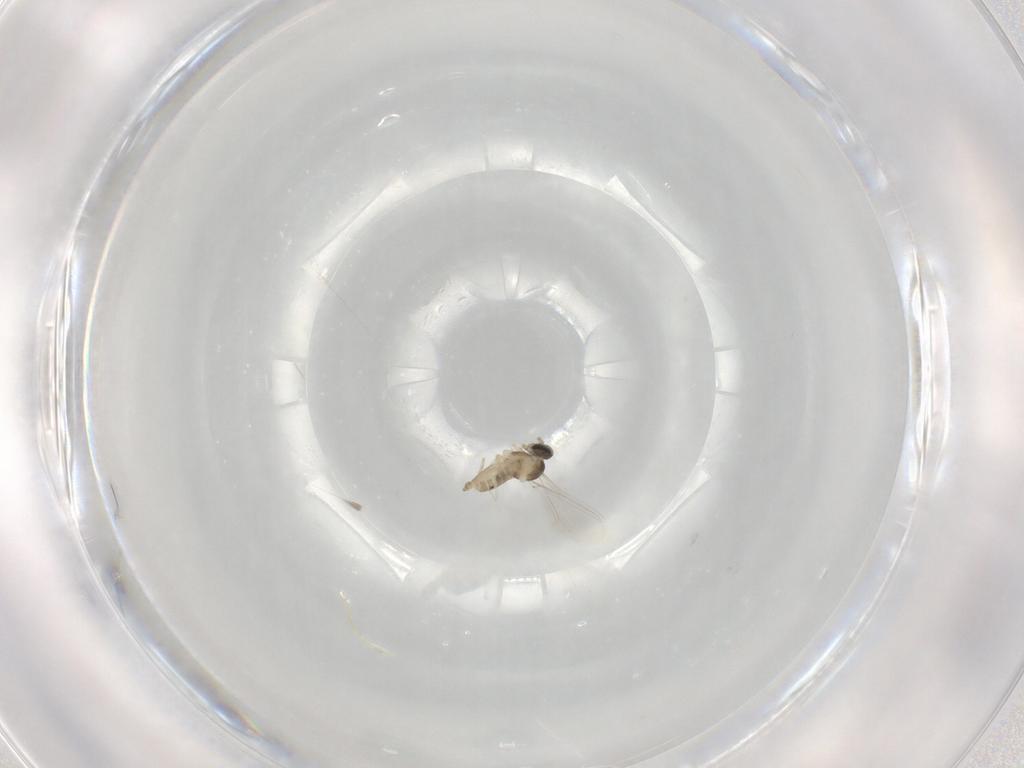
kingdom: Animalia
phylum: Arthropoda
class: Insecta
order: Diptera
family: Cecidomyiidae
